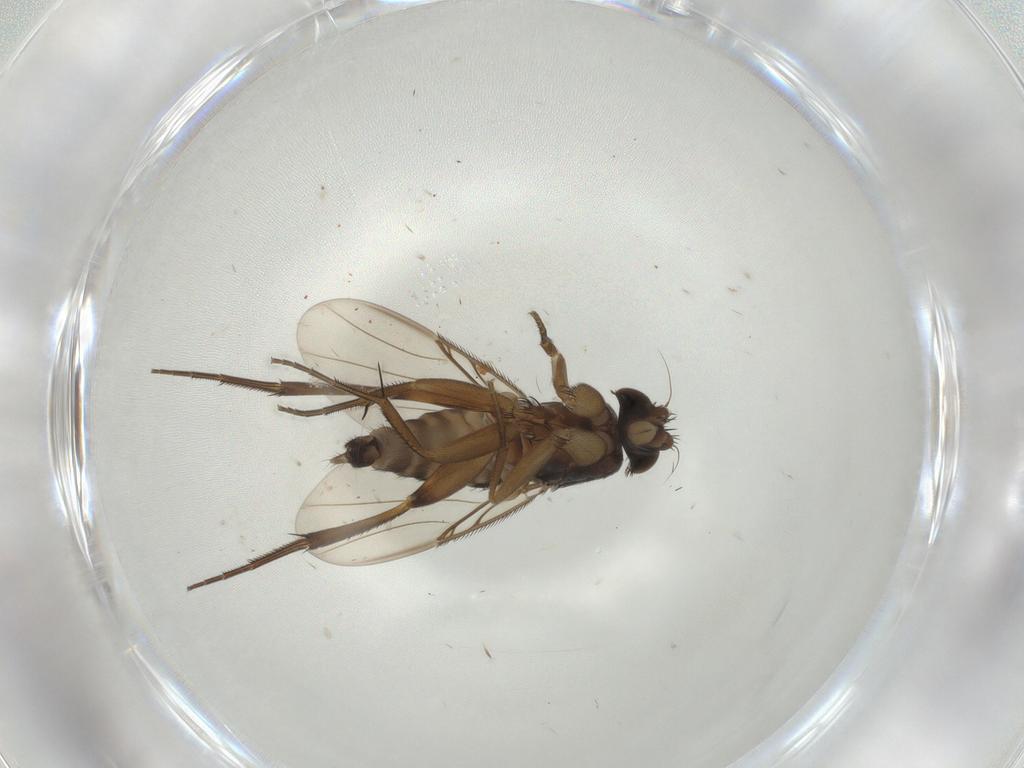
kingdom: Animalia
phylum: Arthropoda
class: Insecta
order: Diptera
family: Phoridae
